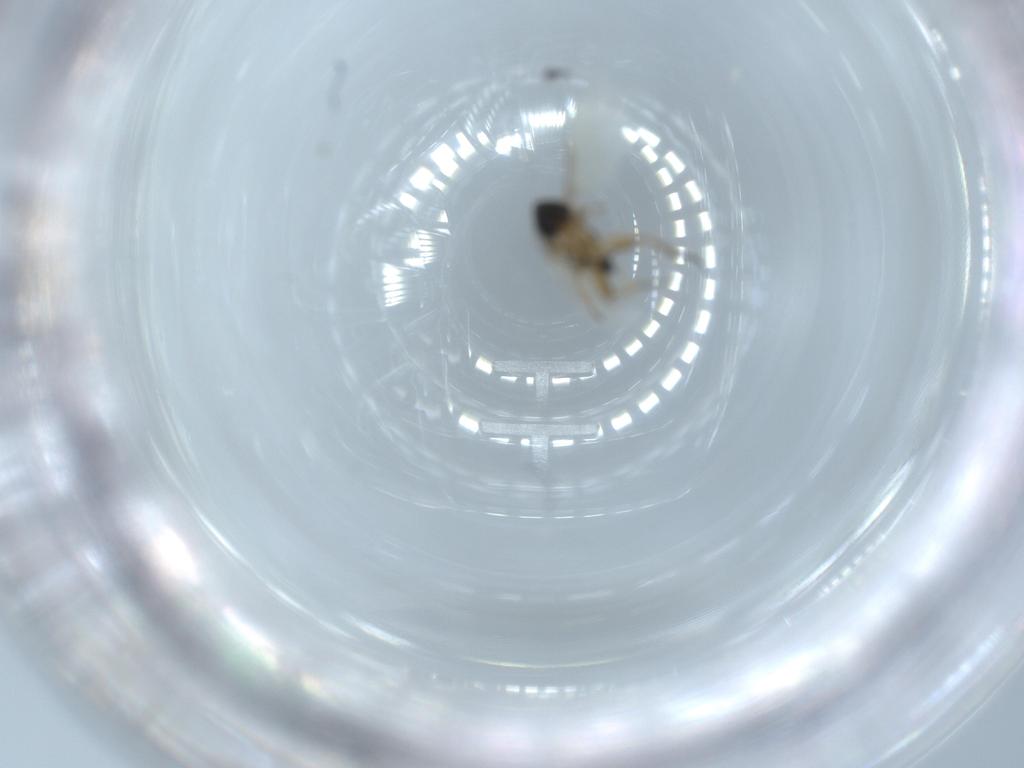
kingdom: Animalia
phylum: Arthropoda
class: Insecta
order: Diptera
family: Phoridae
